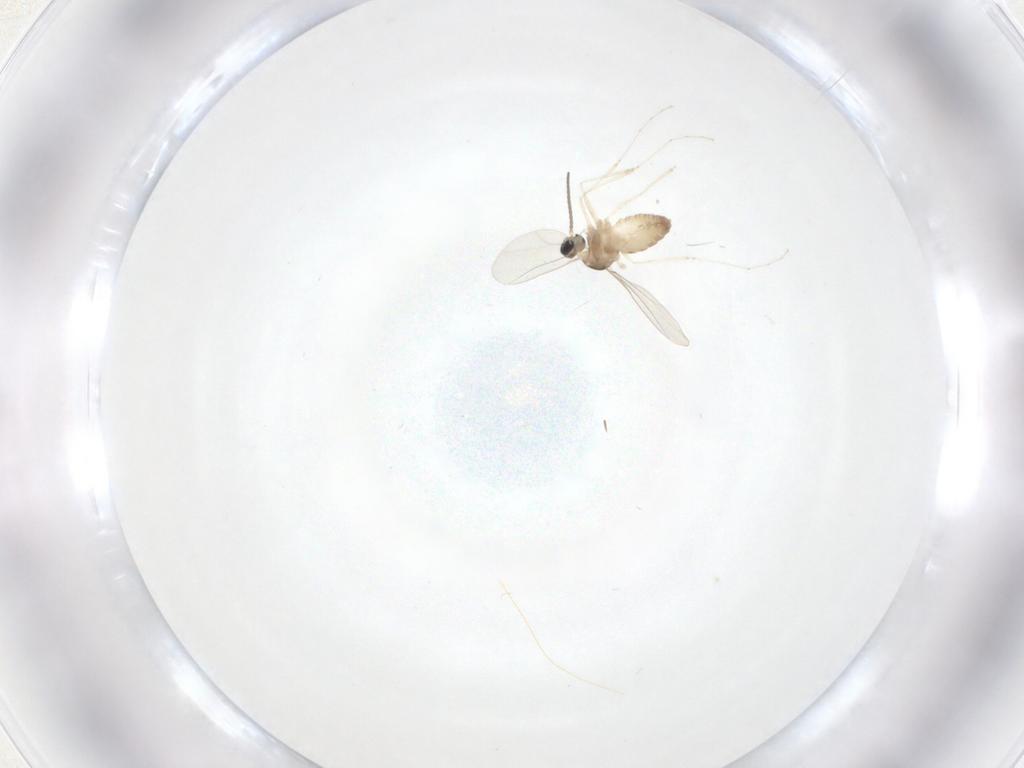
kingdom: Animalia
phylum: Arthropoda
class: Insecta
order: Diptera
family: Cecidomyiidae
